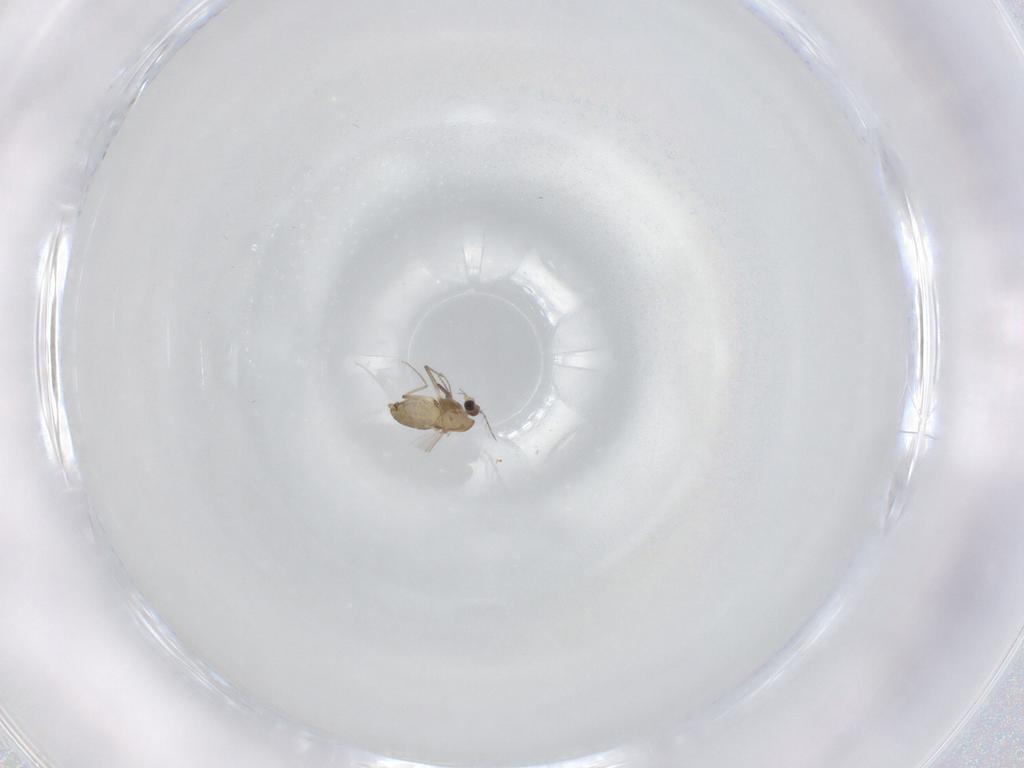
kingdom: Animalia
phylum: Arthropoda
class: Insecta
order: Diptera
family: Chironomidae
